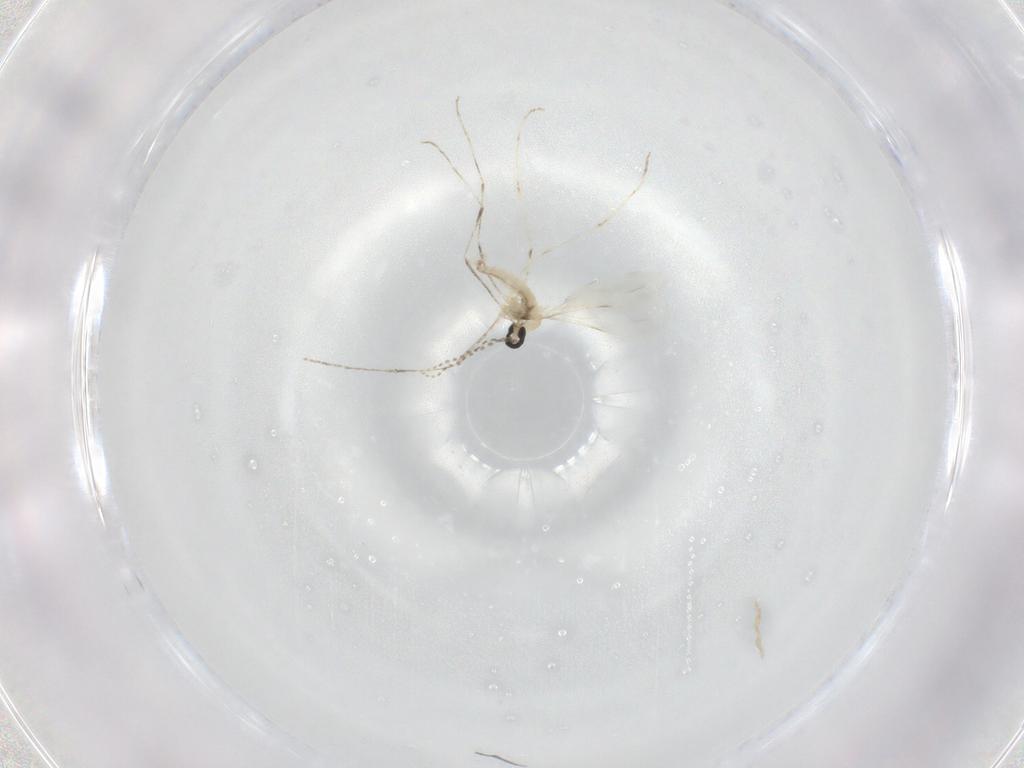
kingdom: Animalia
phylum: Arthropoda
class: Insecta
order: Diptera
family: Cecidomyiidae
